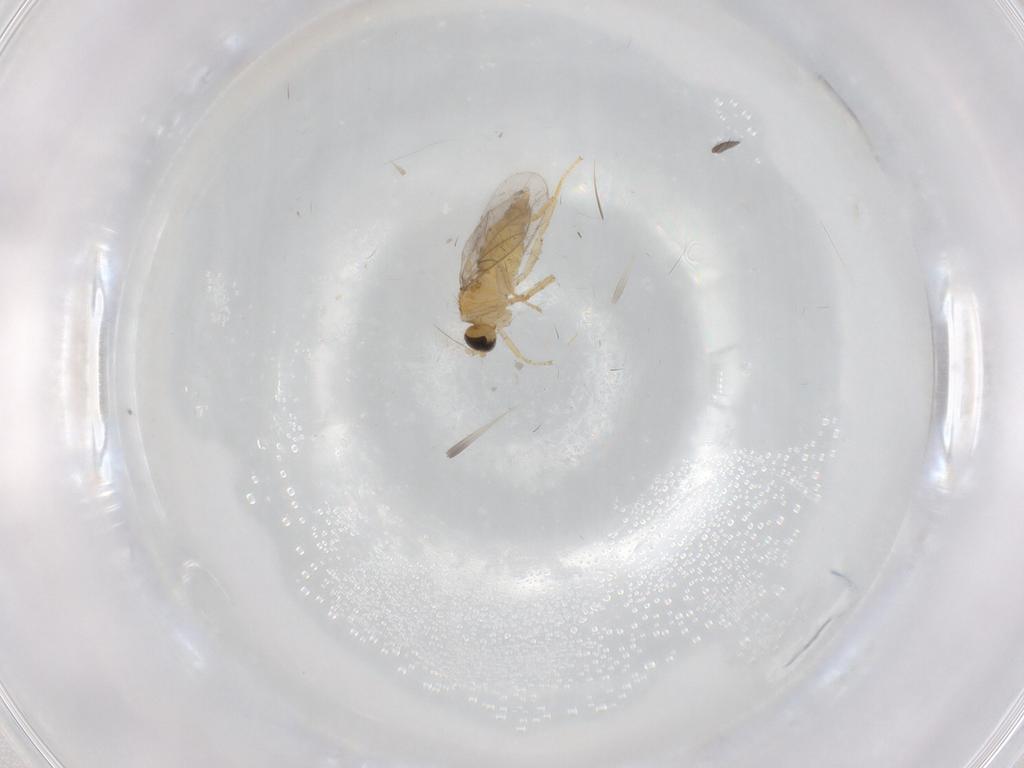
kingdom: Animalia
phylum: Arthropoda
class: Insecta
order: Diptera
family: Hybotidae
